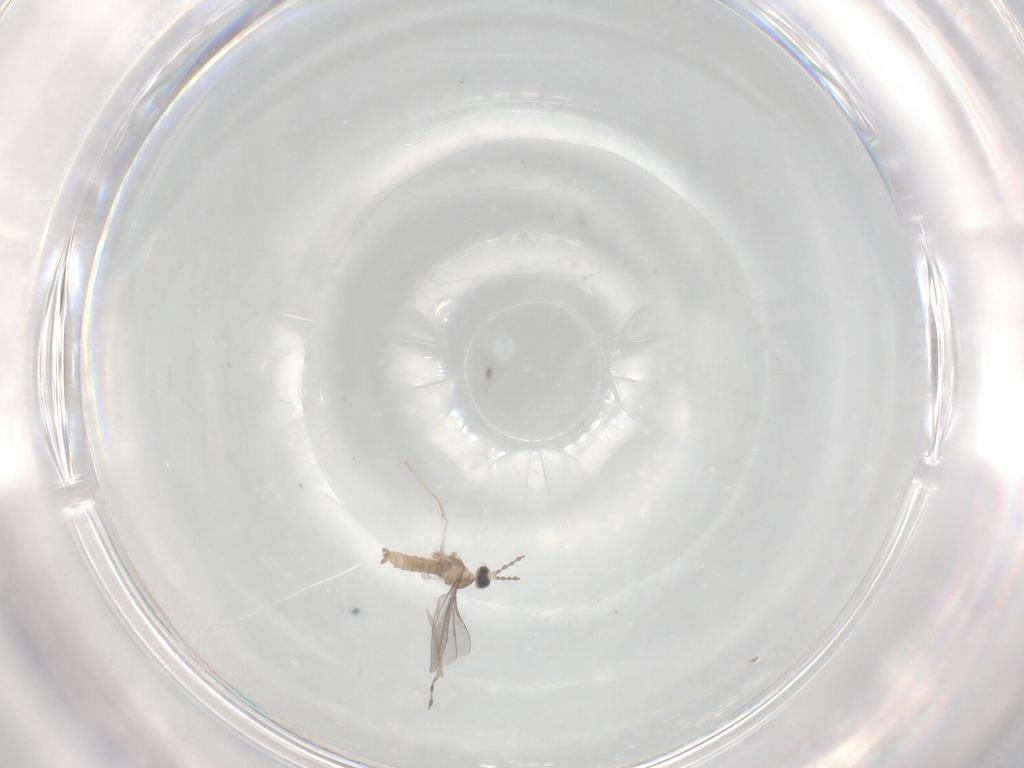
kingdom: Animalia
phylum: Arthropoda
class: Insecta
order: Diptera
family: Cecidomyiidae
